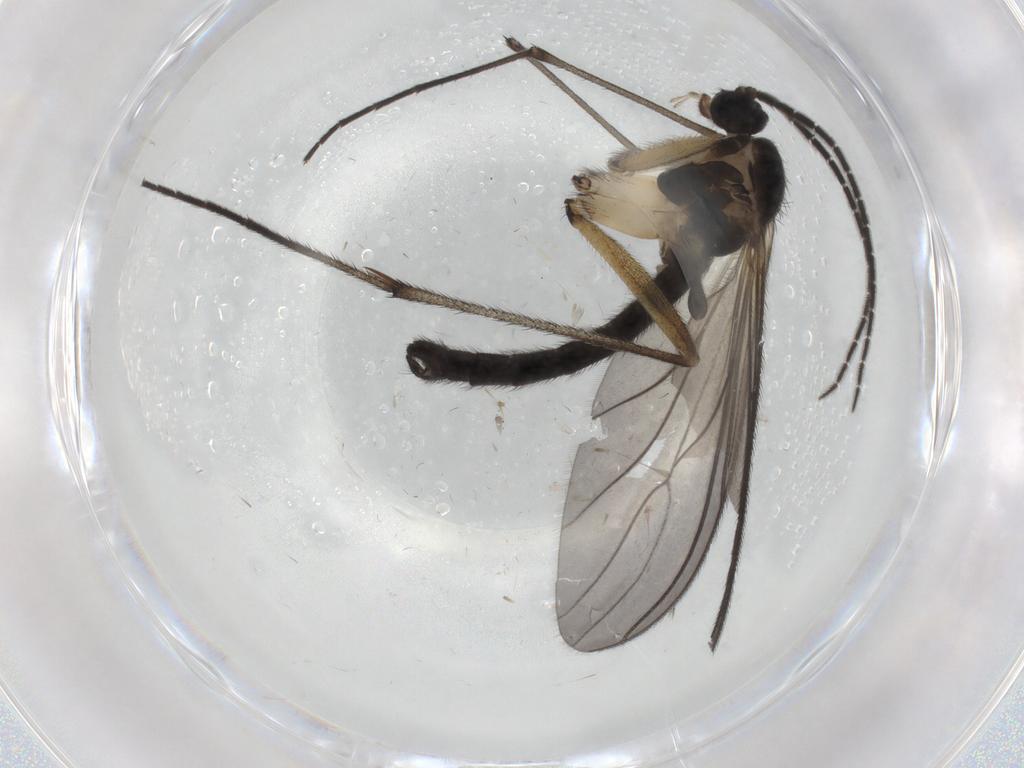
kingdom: Animalia
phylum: Arthropoda
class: Insecta
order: Diptera
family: Sciaridae
